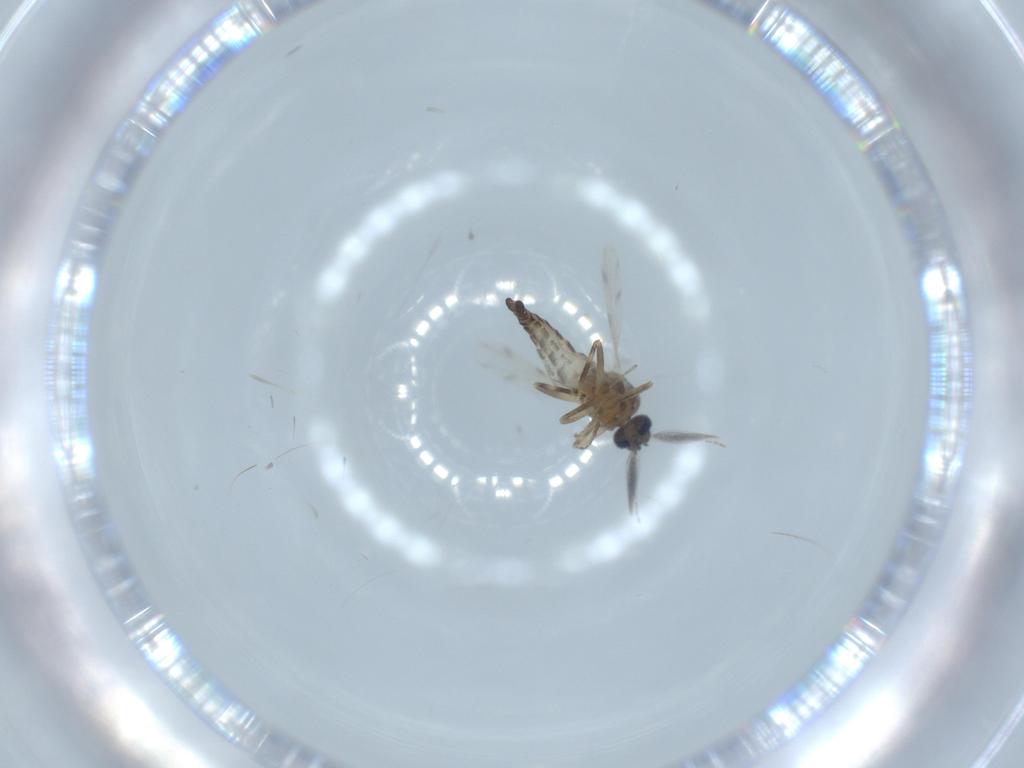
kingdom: Animalia
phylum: Arthropoda
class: Insecta
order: Diptera
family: Ceratopogonidae
